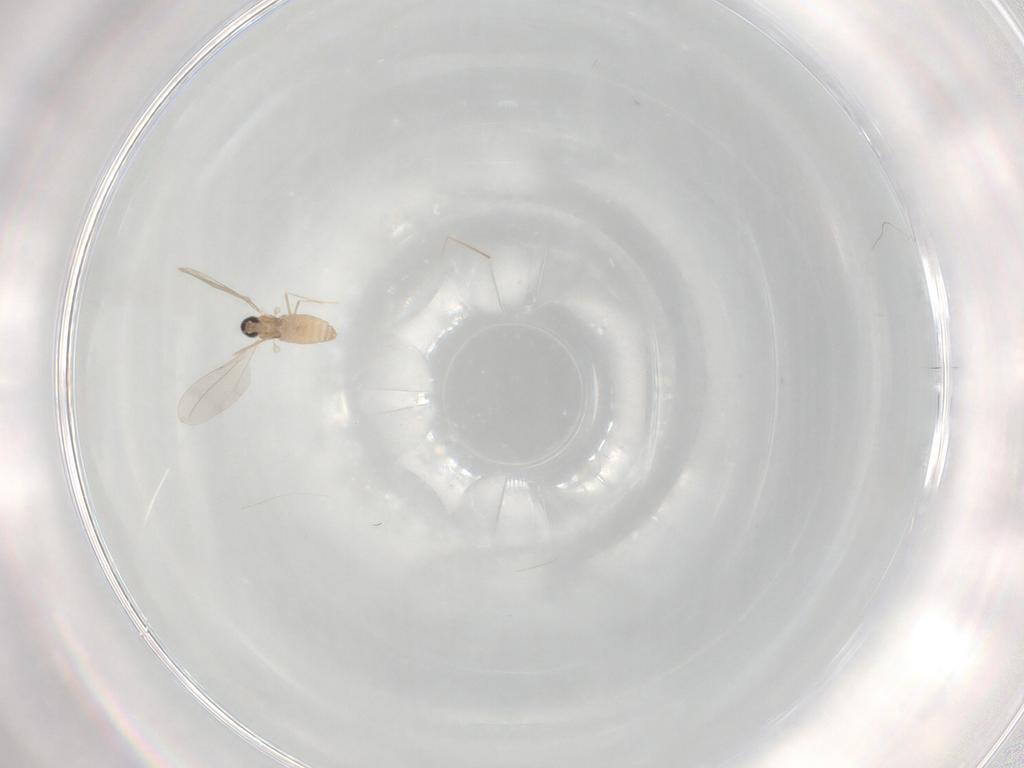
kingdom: Animalia
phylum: Arthropoda
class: Insecta
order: Diptera
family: Cecidomyiidae
